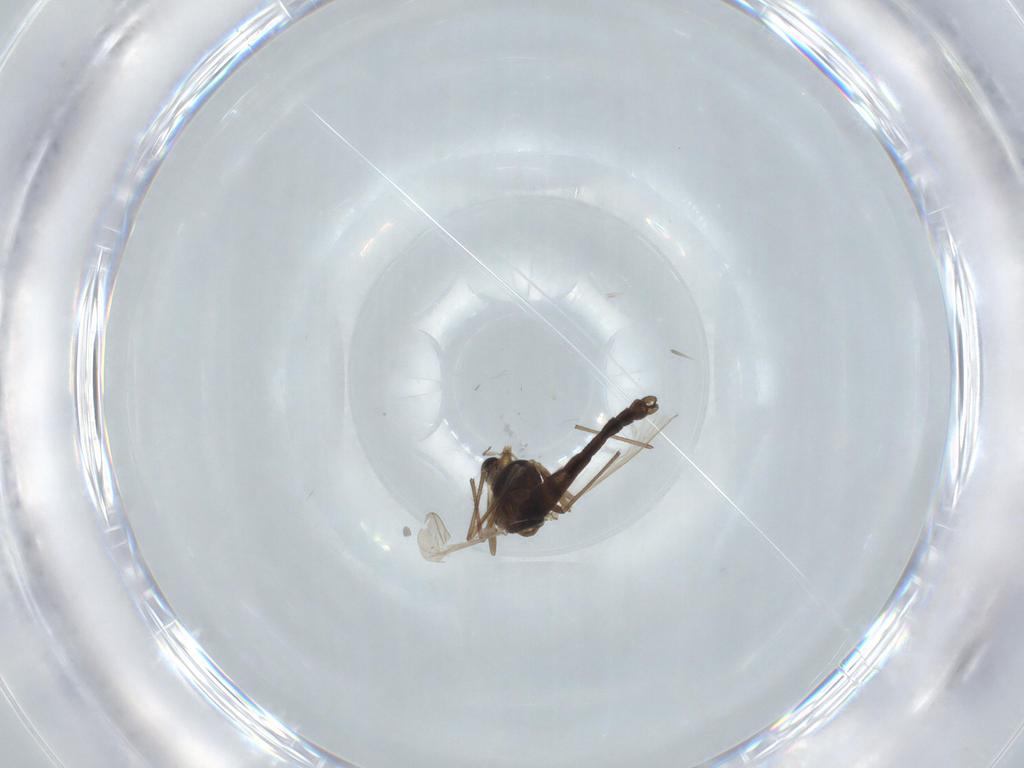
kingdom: Animalia
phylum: Arthropoda
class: Insecta
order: Diptera
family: Chironomidae
